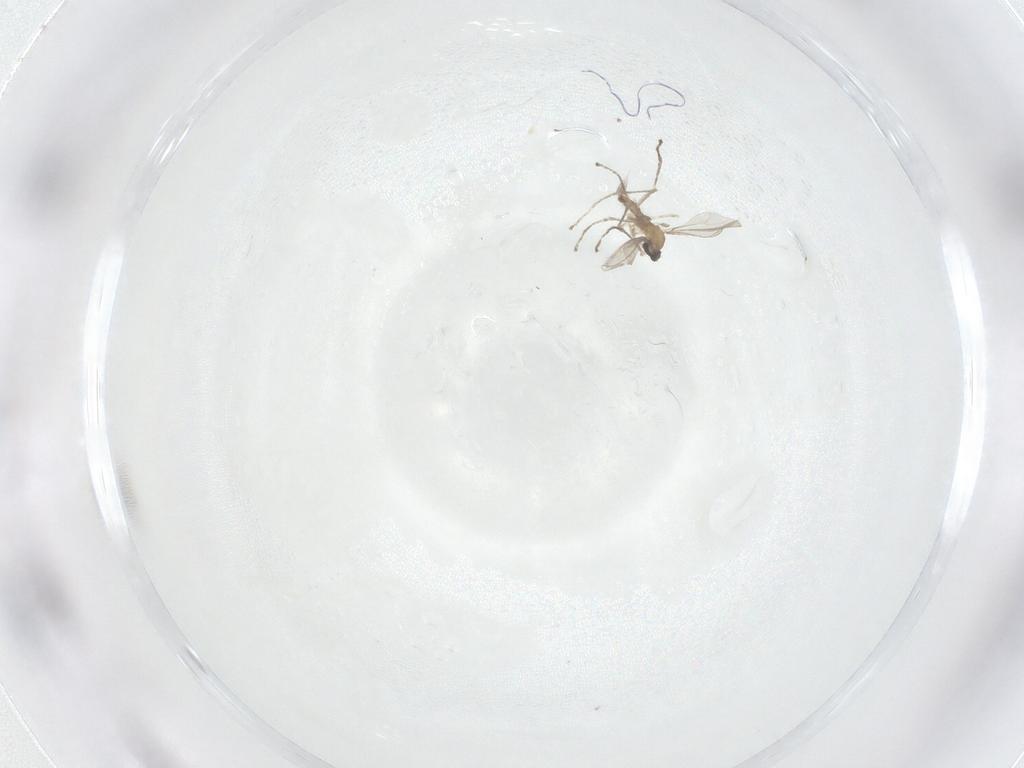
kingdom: Animalia
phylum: Arthropoda
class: Insecta
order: Diptera
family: Cecidomyiidae
